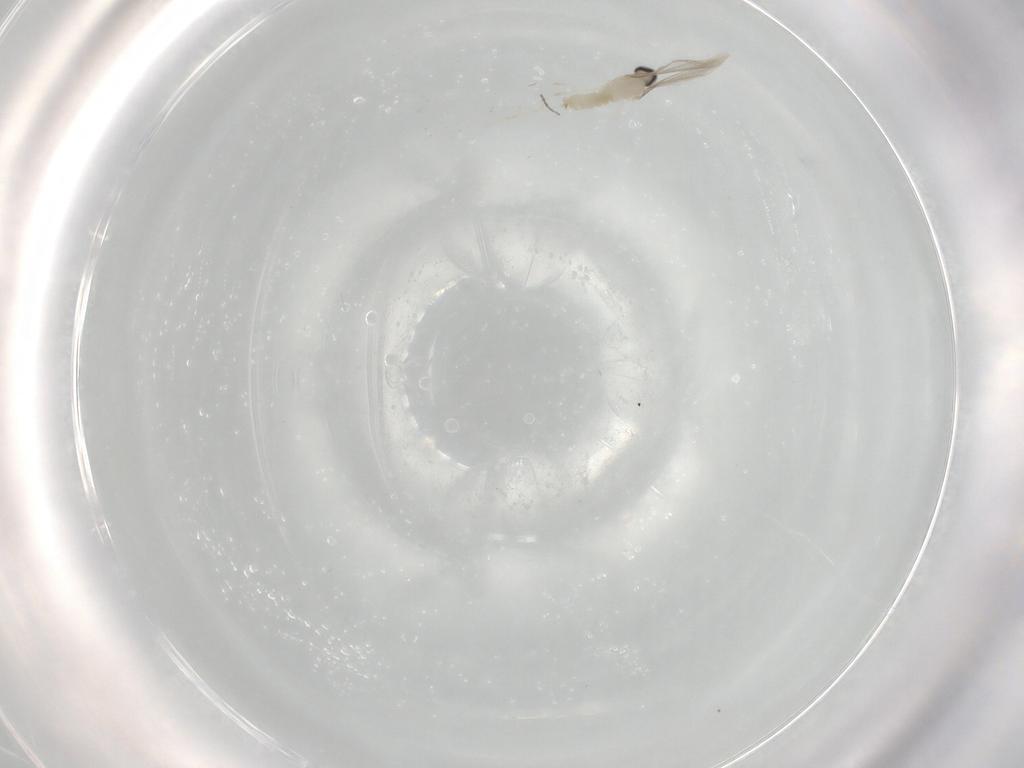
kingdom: Animalia
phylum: Arthropoda
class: Insecta
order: Diptera
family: Cecidomyiidae
